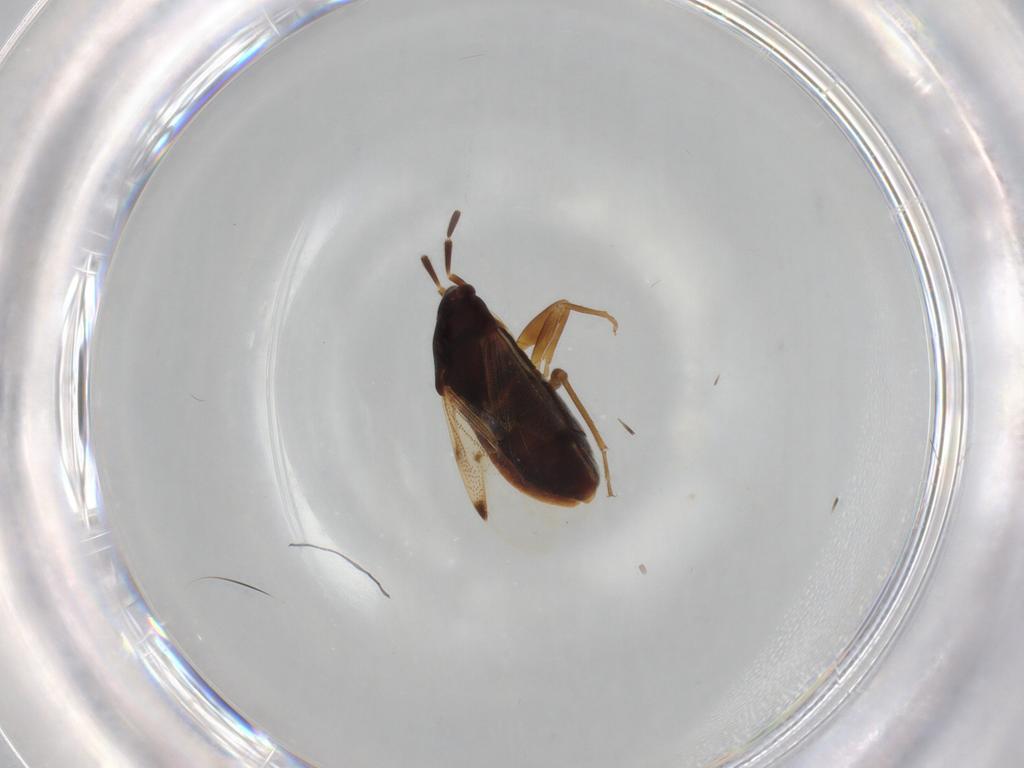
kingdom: Animalia
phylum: Arthropoda
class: Insecta
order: Hemiptera
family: Rhyparochromidae
